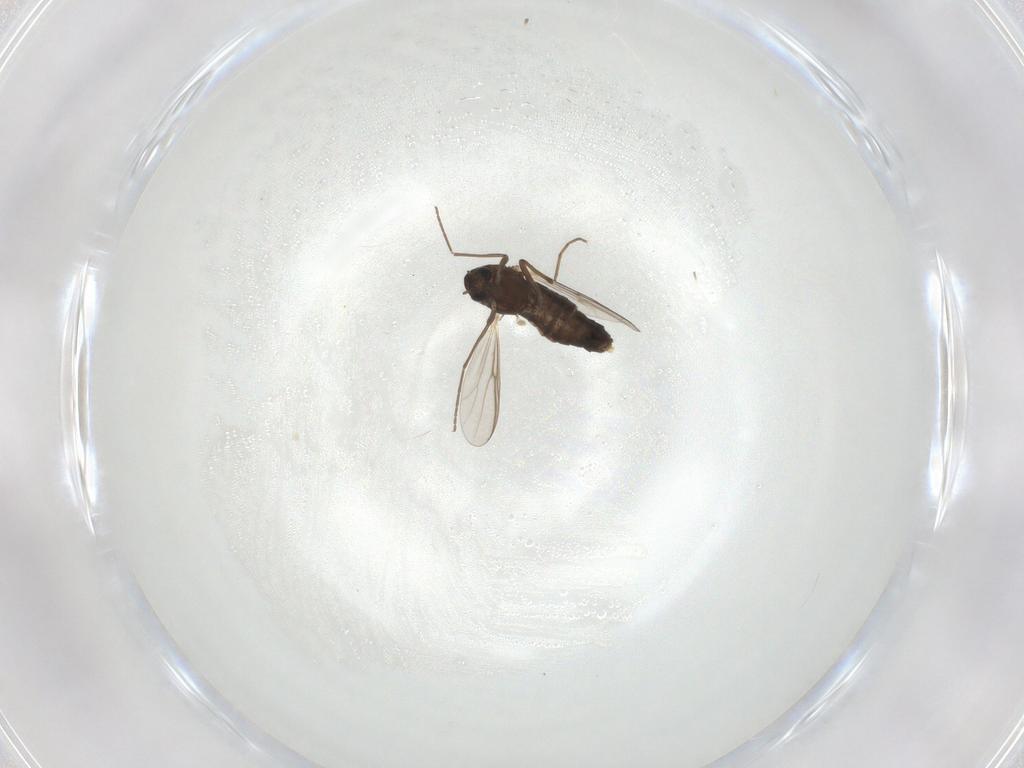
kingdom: Animalia
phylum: Arthropoda
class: Insecta
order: Diptera
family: Chironomidae
